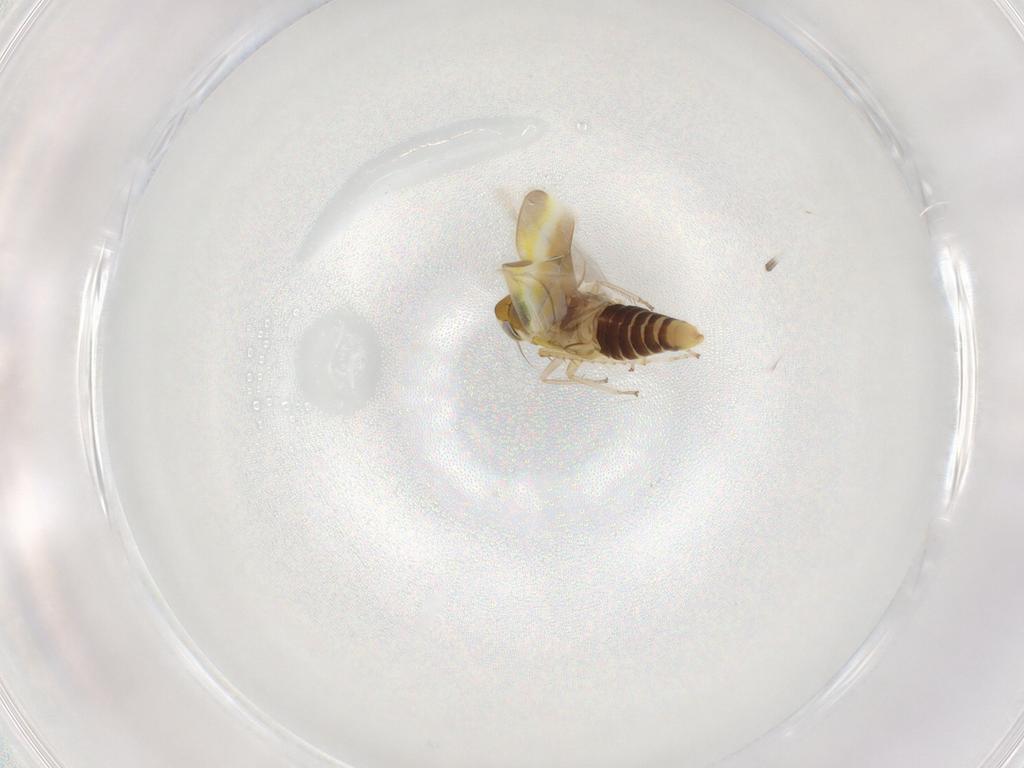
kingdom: Animalia
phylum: Arthropoda
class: Insecta
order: Hemiptera
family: Cicadellidae
